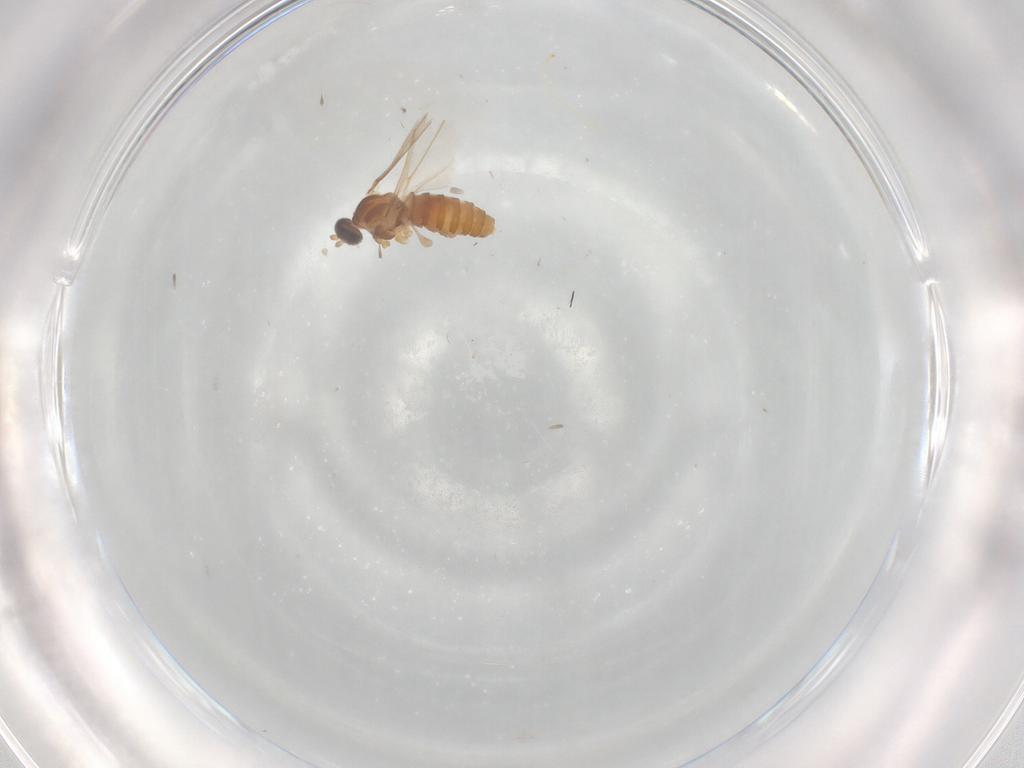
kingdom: Animalia
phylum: Arthropoda
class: Insecta
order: Diptera
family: Cecidomyiidae
